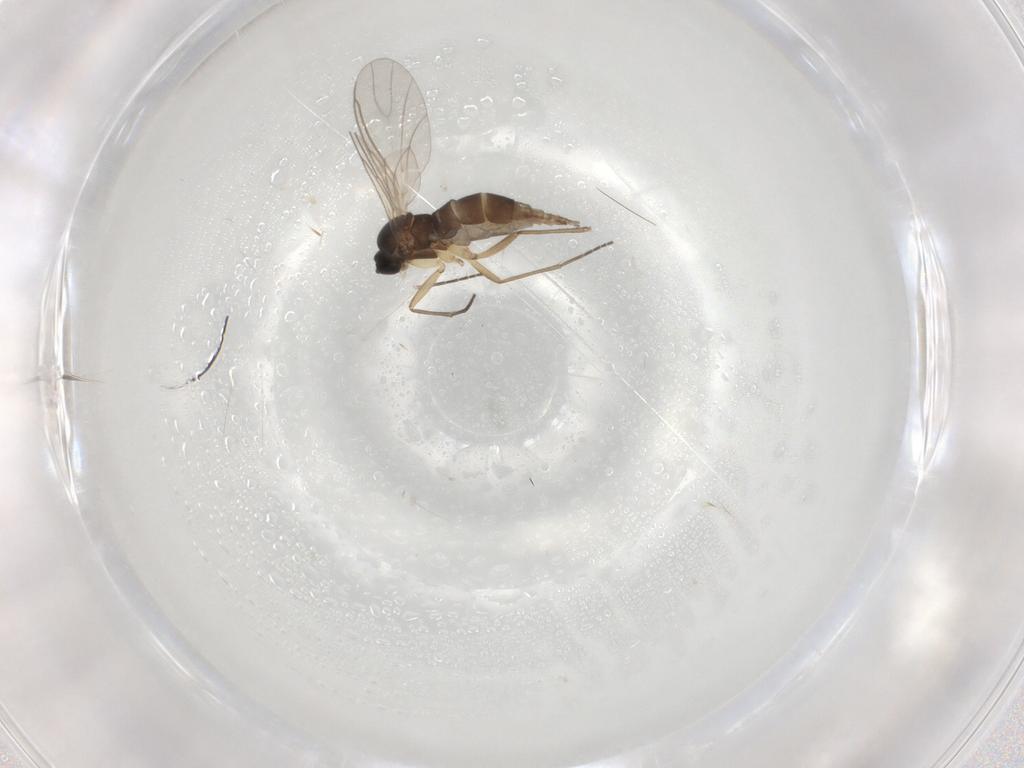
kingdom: Animalia
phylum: Arthropoda
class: Insecta
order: Diptera
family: Sciaridae
